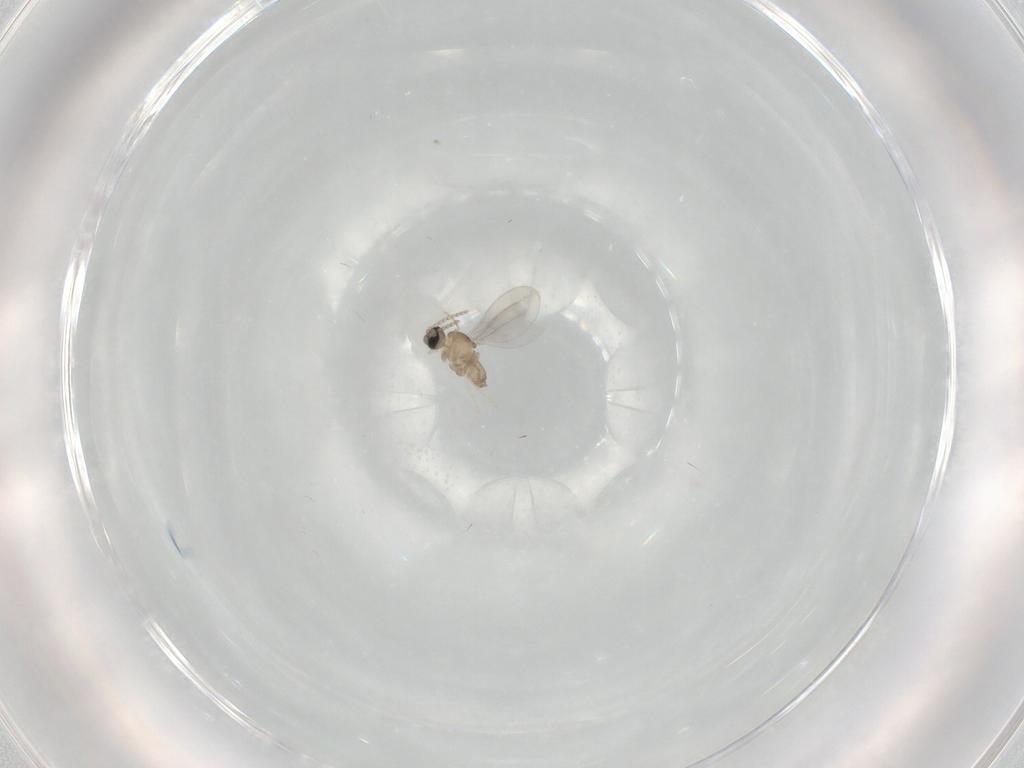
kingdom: Animalia
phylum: Arthropoda
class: Insecta
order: Diptera
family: Cecidomyiidae
